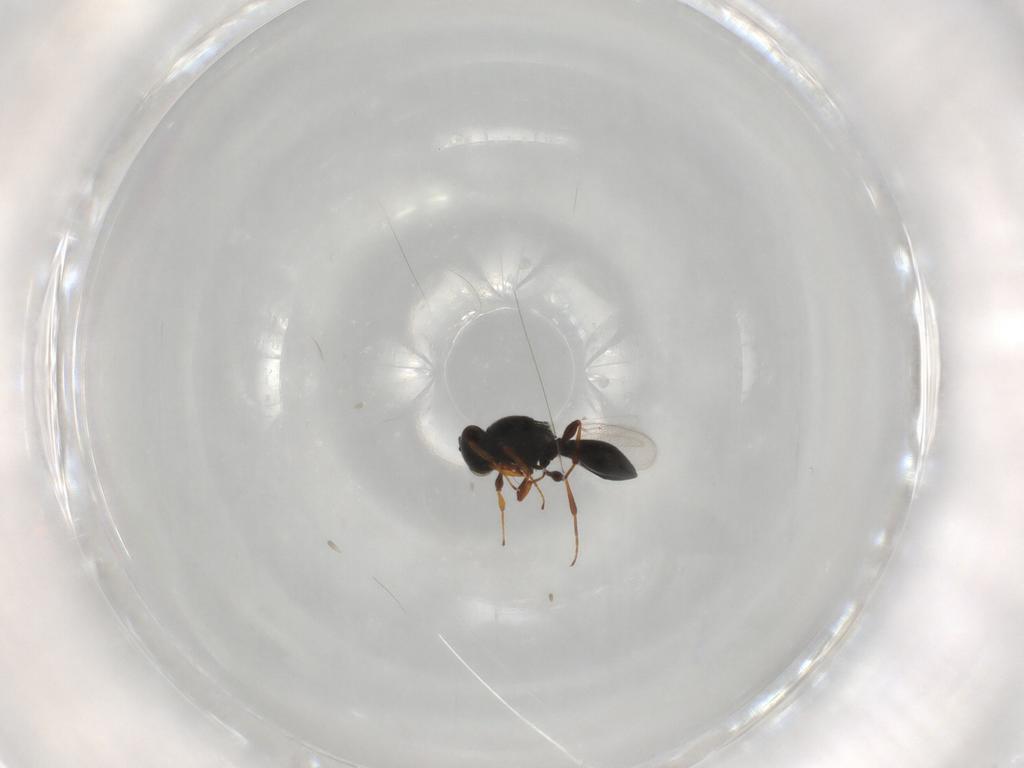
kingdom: Animalia
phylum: Arthropoda
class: Insecta
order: Hymenoptera
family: Platygastridae
